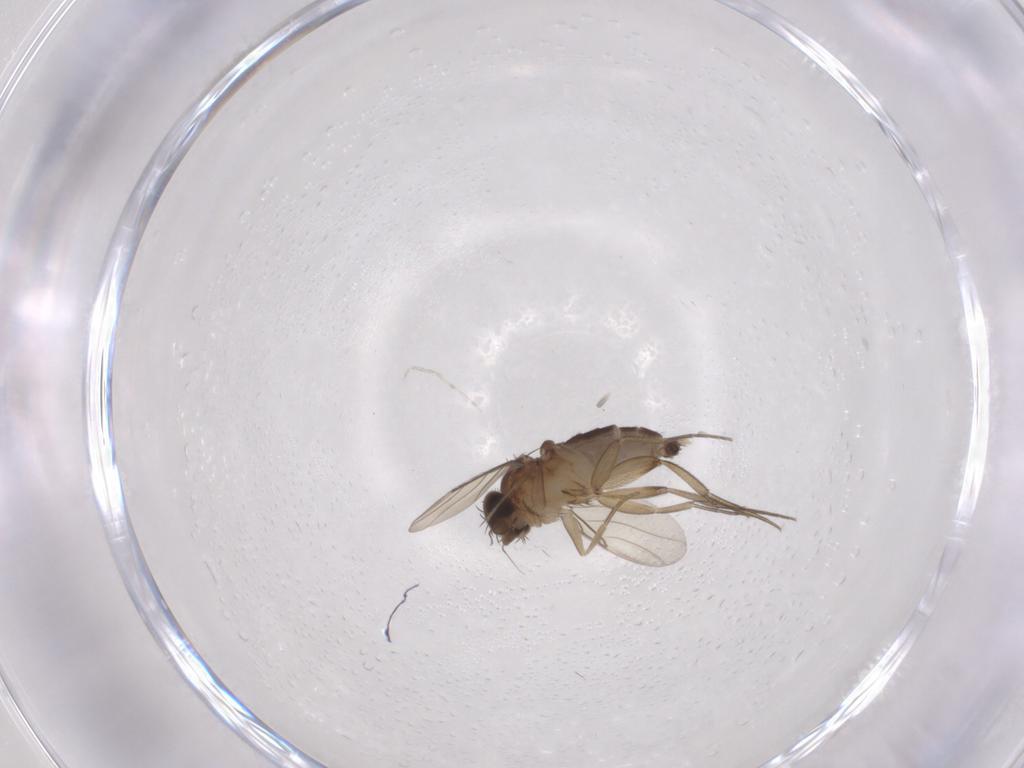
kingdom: Animalia
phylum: Arthropoda
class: Insecta
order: Diptera
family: Phoridae
